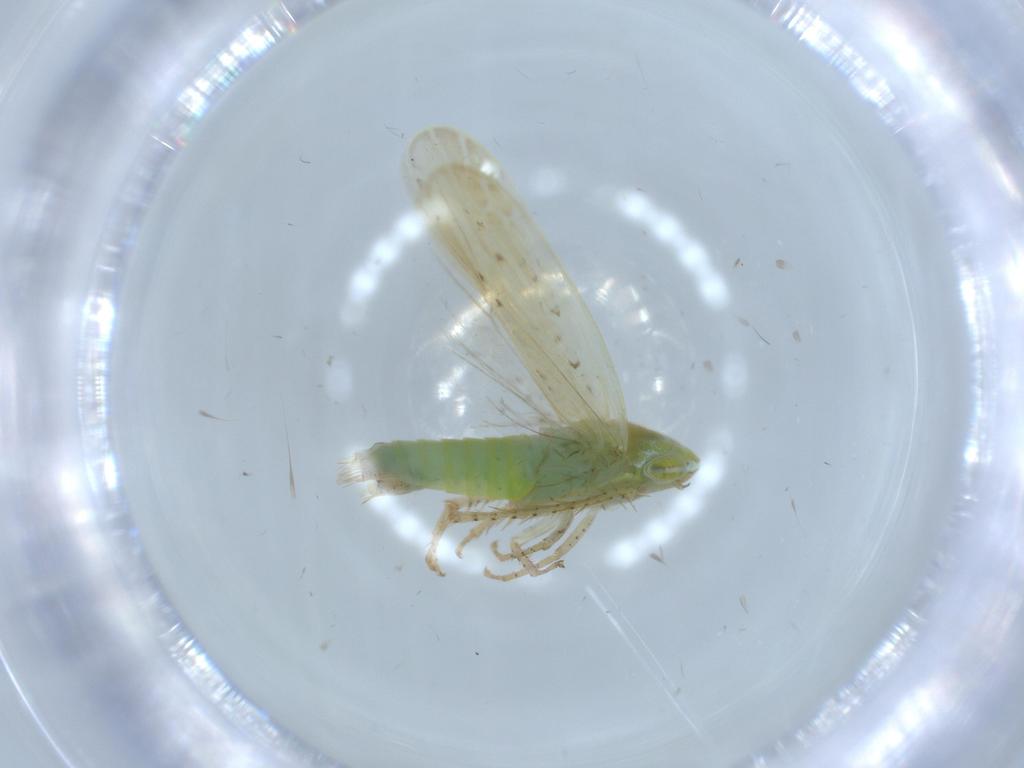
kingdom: Animalia
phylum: Arthropoda
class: Insecta
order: Hemiptera
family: Cicadellidae
